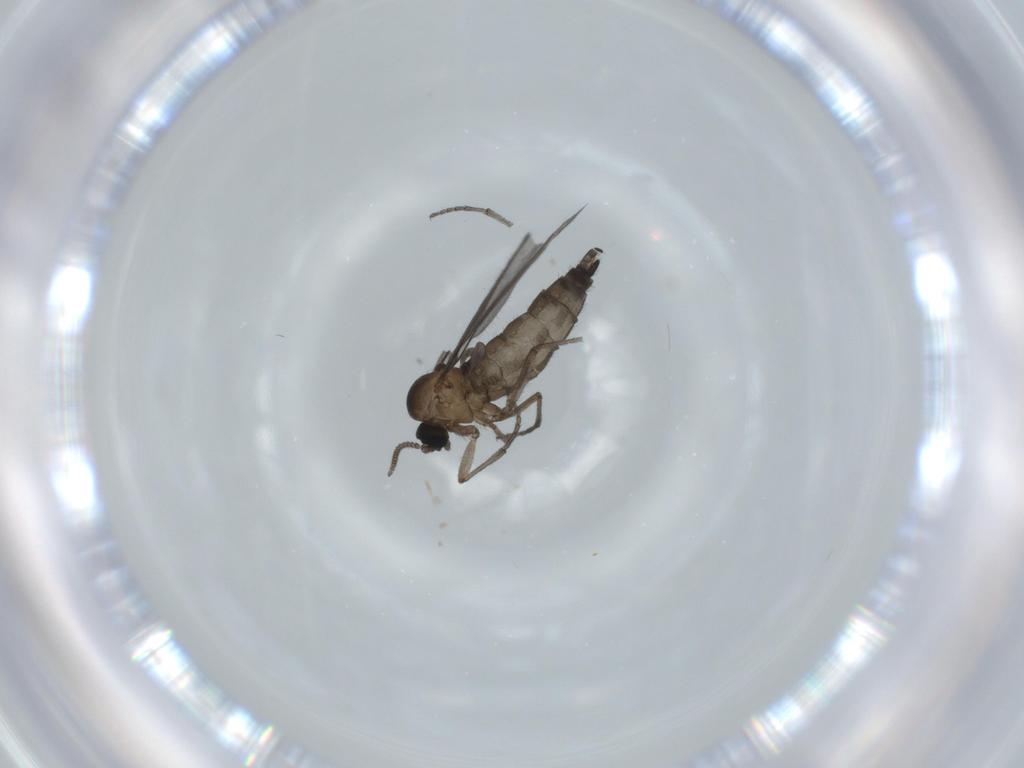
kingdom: Animalia
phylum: Arthropoda
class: Insecta
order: Diptera
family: Sciaridae
